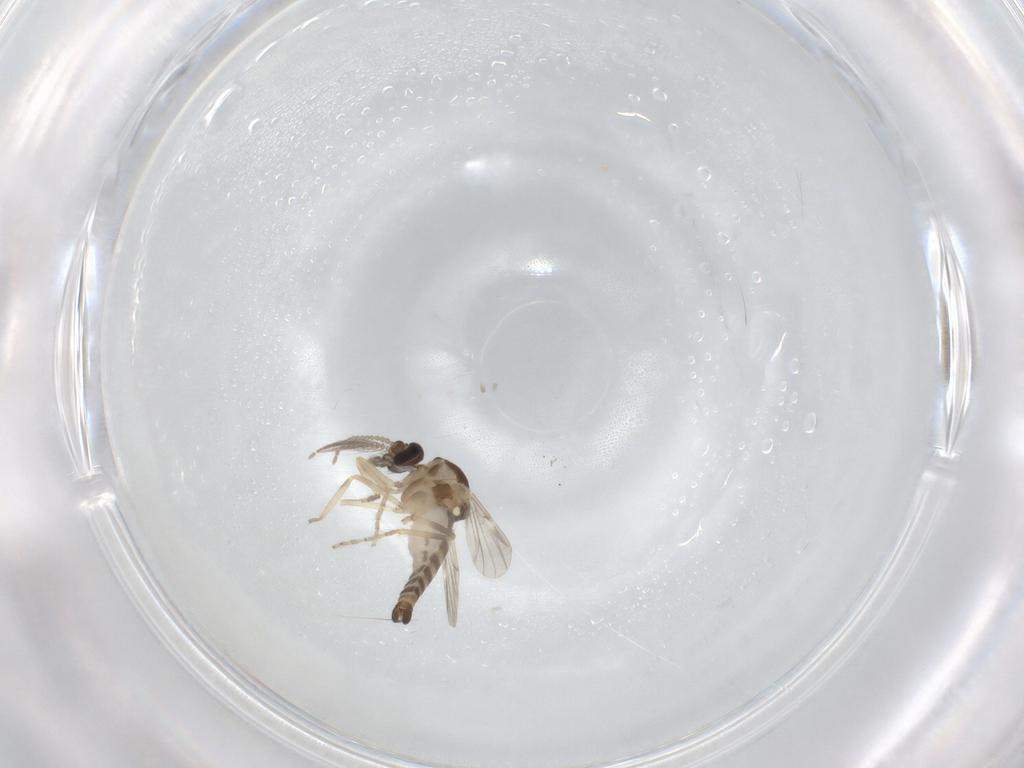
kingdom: Animalia
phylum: Arthropoda
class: Insecta
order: Diptera
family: Ceratopogonidae
